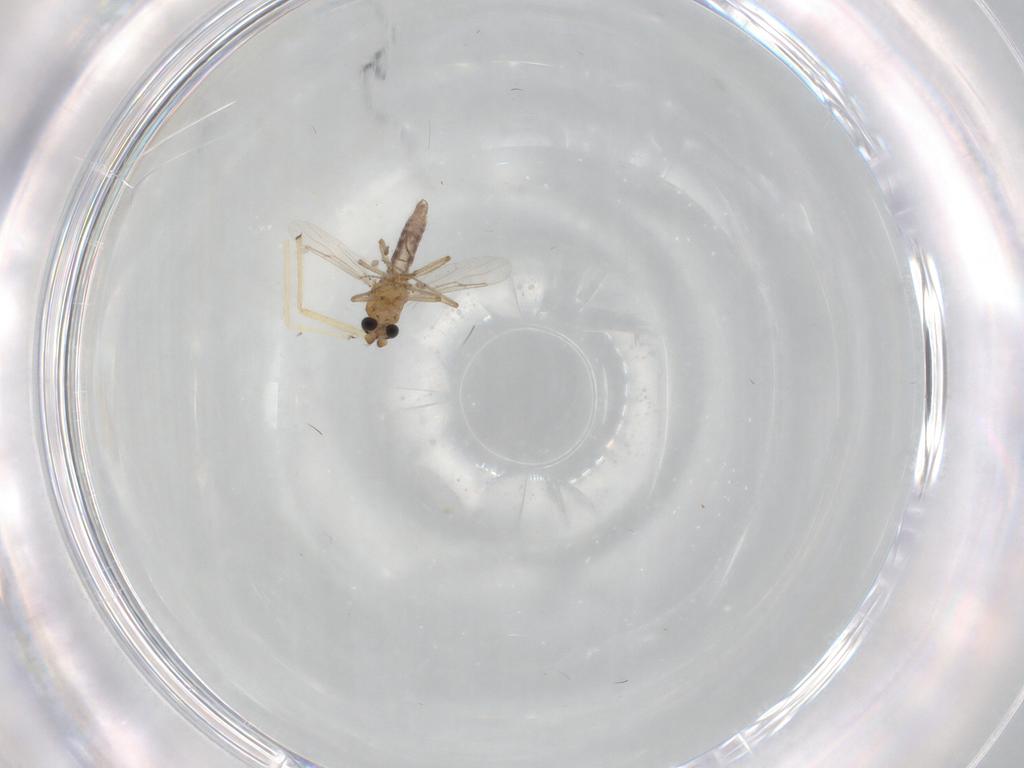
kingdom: Animalia
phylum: Arthropoda
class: Insecta
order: Diptera
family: Chironomidae
